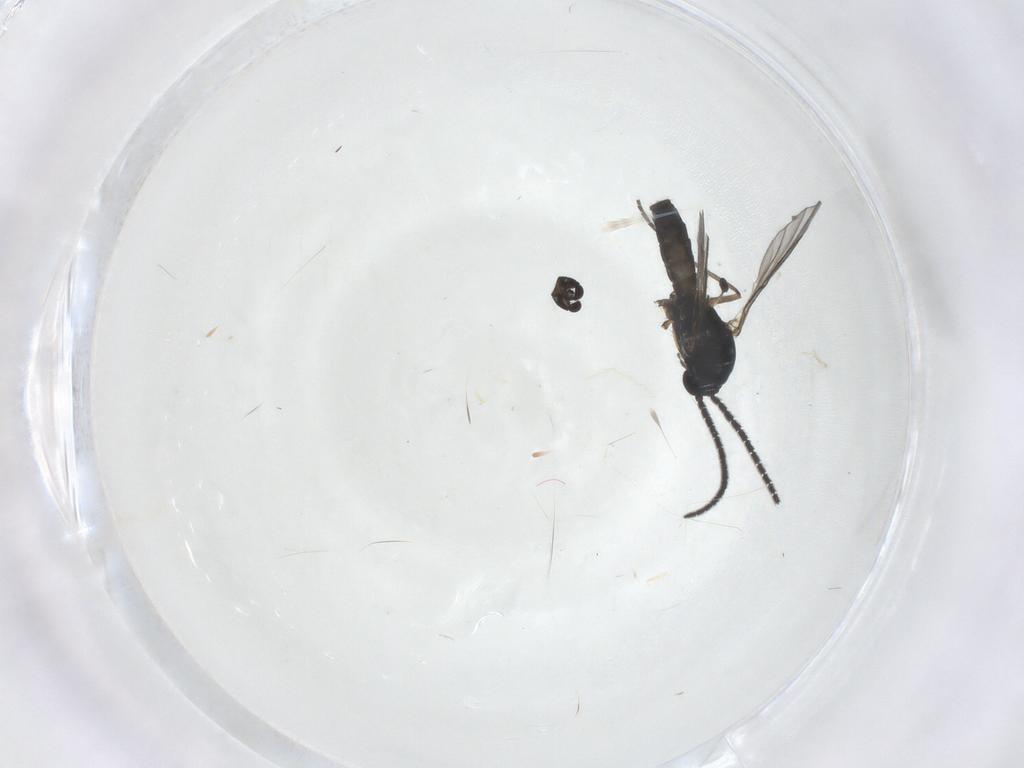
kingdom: Animalia
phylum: Arthropoda
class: Insecta
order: Diptera
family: Sciaridae
